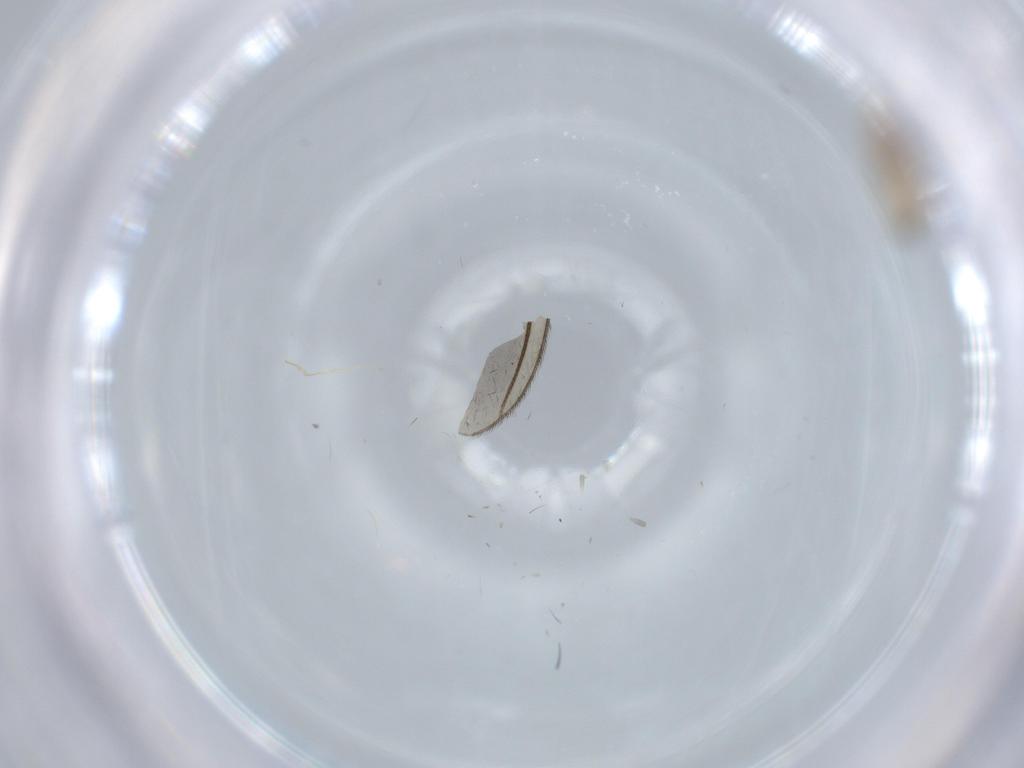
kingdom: Animalia
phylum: Arthropoda
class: Insecta
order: Diptera
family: Cecidomyiidae
